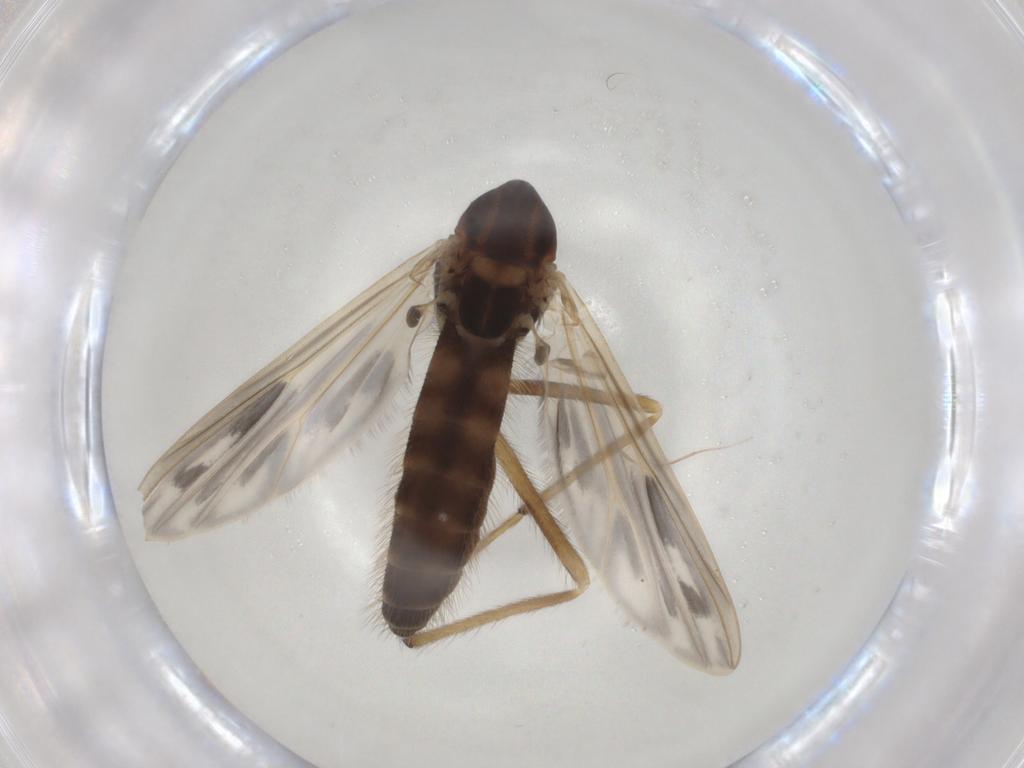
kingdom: Animalia
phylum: Arthropoda
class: Insecta
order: Diptera
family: Cecidomyiidae
